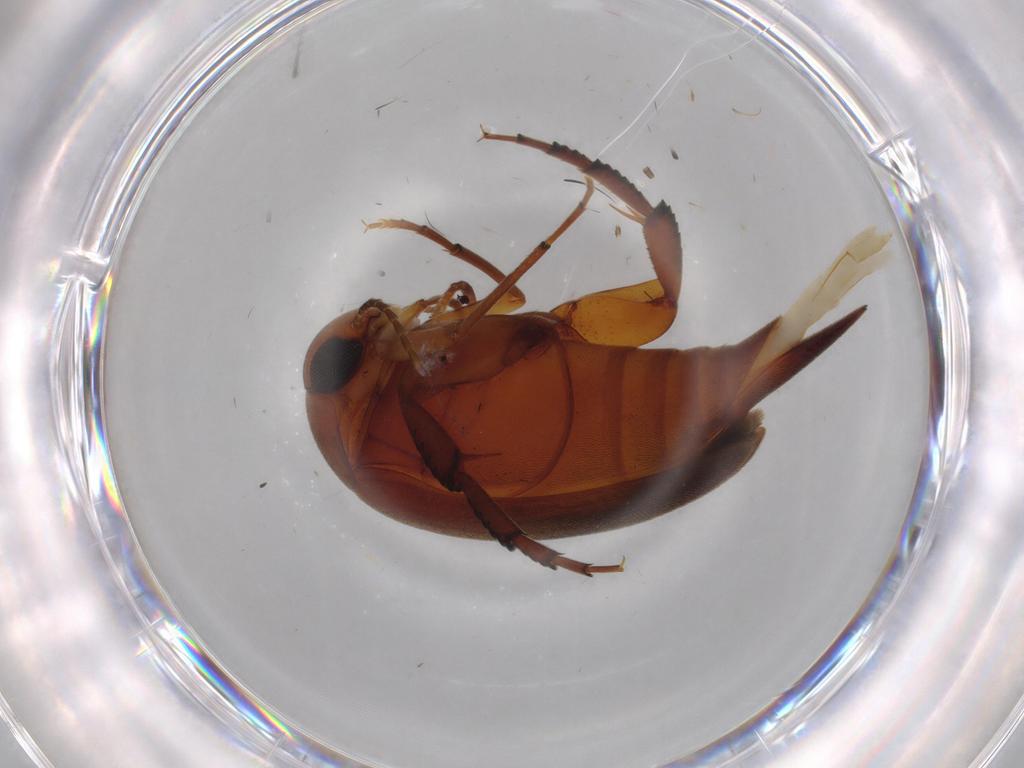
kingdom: Animalia
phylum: Arthropoda
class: Insecta
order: Coleoptera
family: Mordellidae
